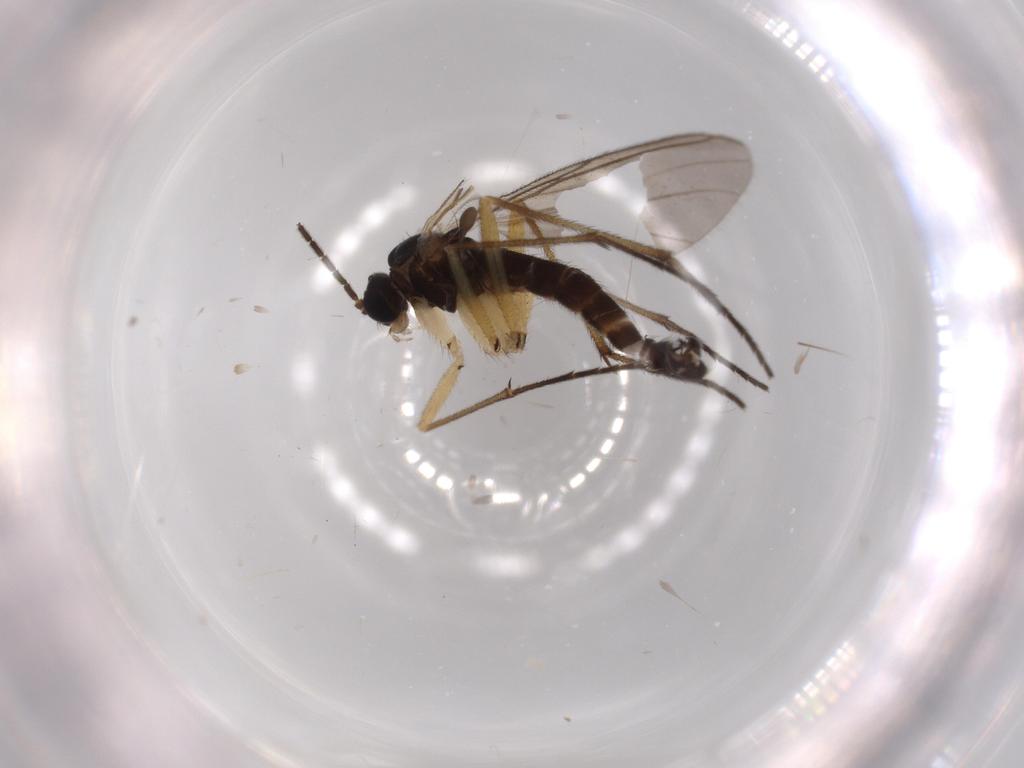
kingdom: Animalia
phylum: Arthropoda
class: Insecta
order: Diptera
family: Sciaridae
